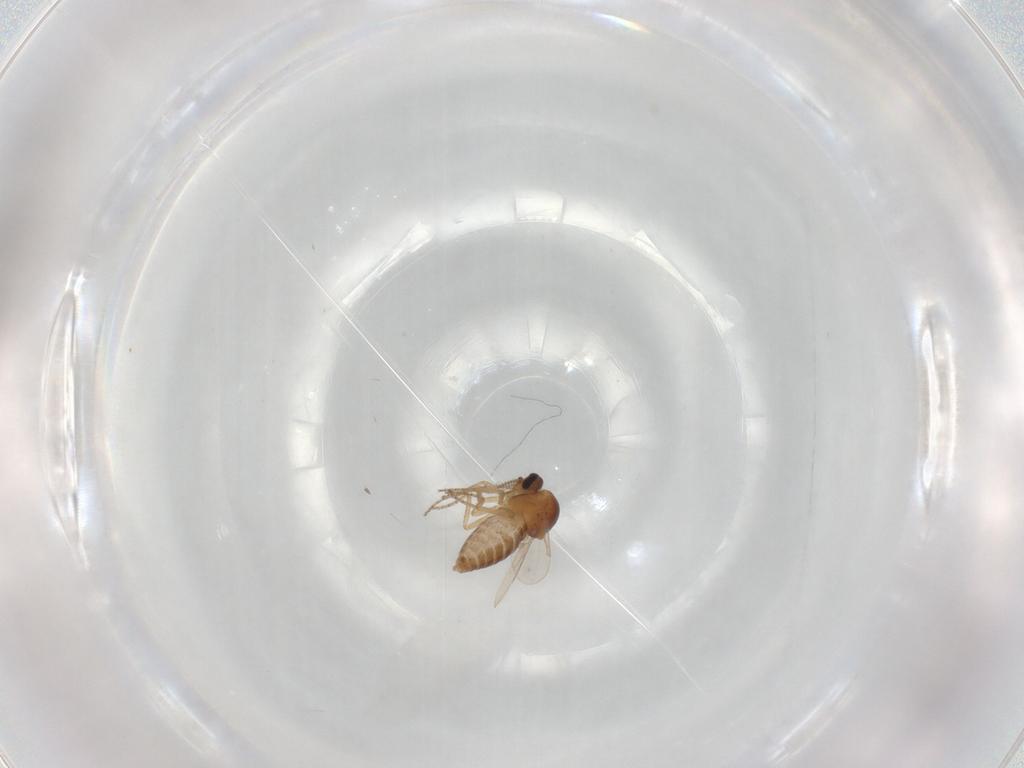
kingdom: Animalia
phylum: Arthropoda
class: Insecta
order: Diptera
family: Ceratopogonidae
